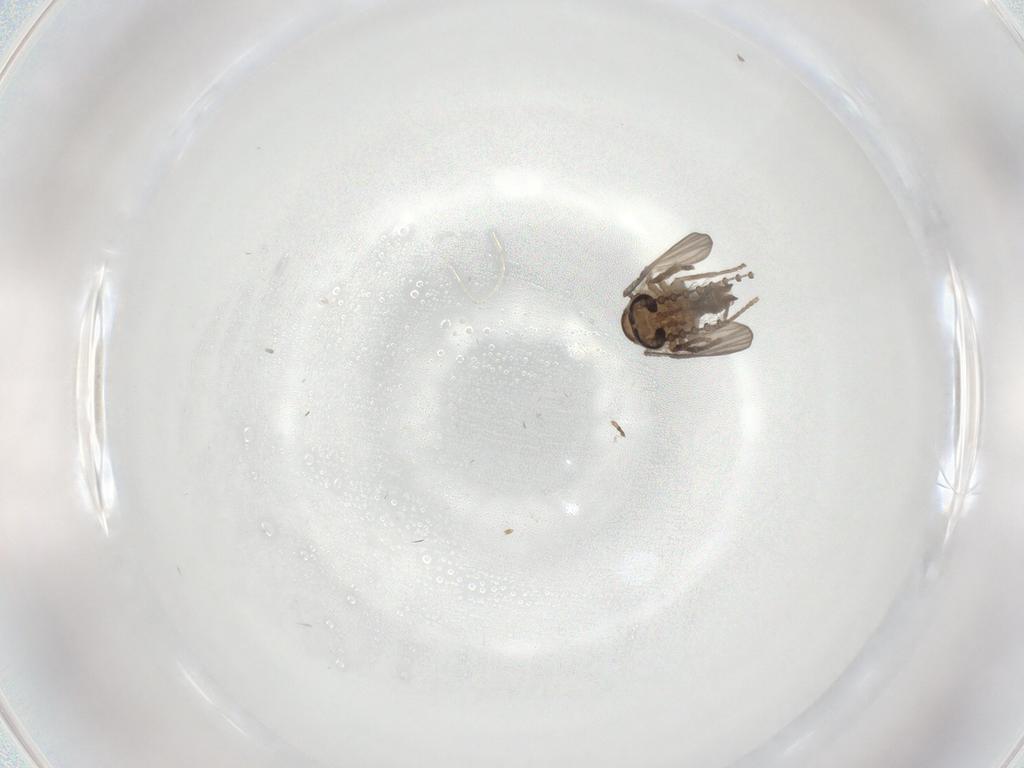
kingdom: Animalia
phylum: Arthropoda
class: Insecta
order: Diptera
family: Psychodidae
